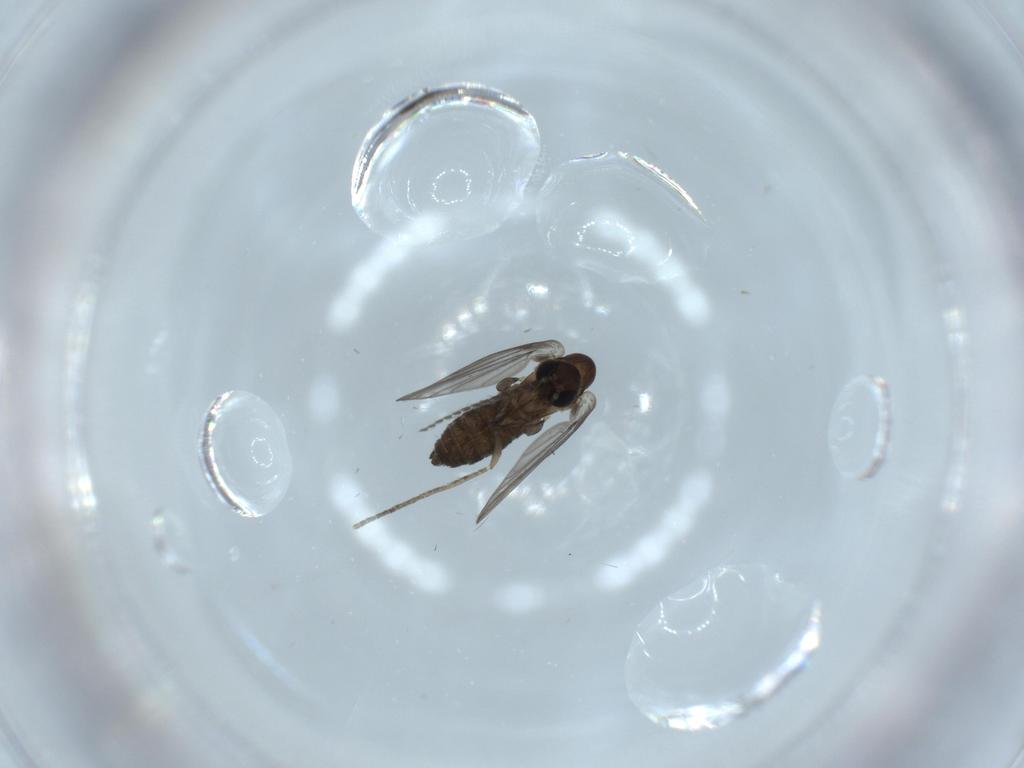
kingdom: Animalia
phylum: Arthropoda
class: Insecta
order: Diptera
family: Psychodidae
